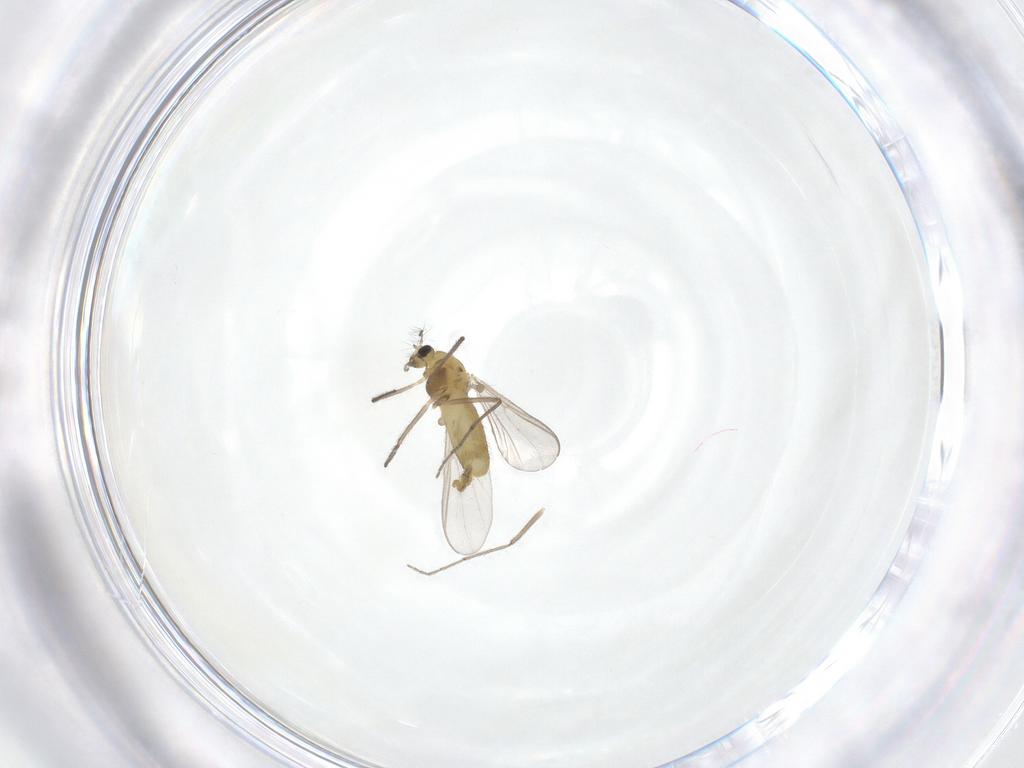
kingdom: Animalia
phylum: Arthropoda
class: Insecta
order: Diptera
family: Chironomidae
